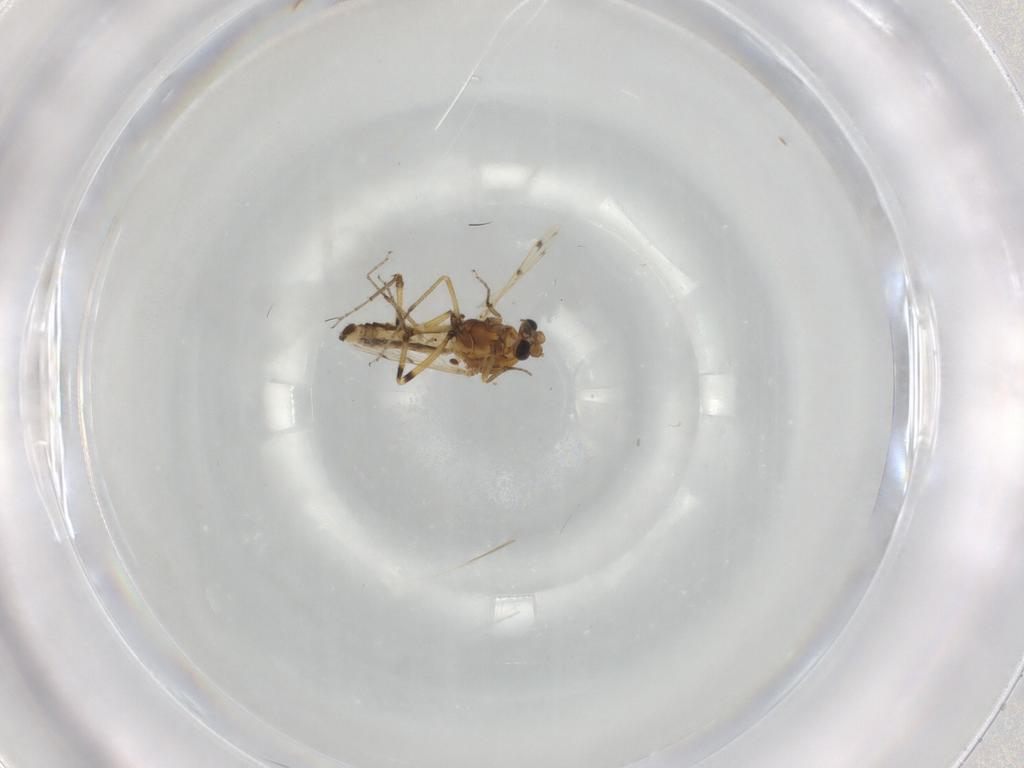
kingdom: Animalia
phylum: Arthropoda
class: Insecta
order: Diptera
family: Ceratopogonidae
